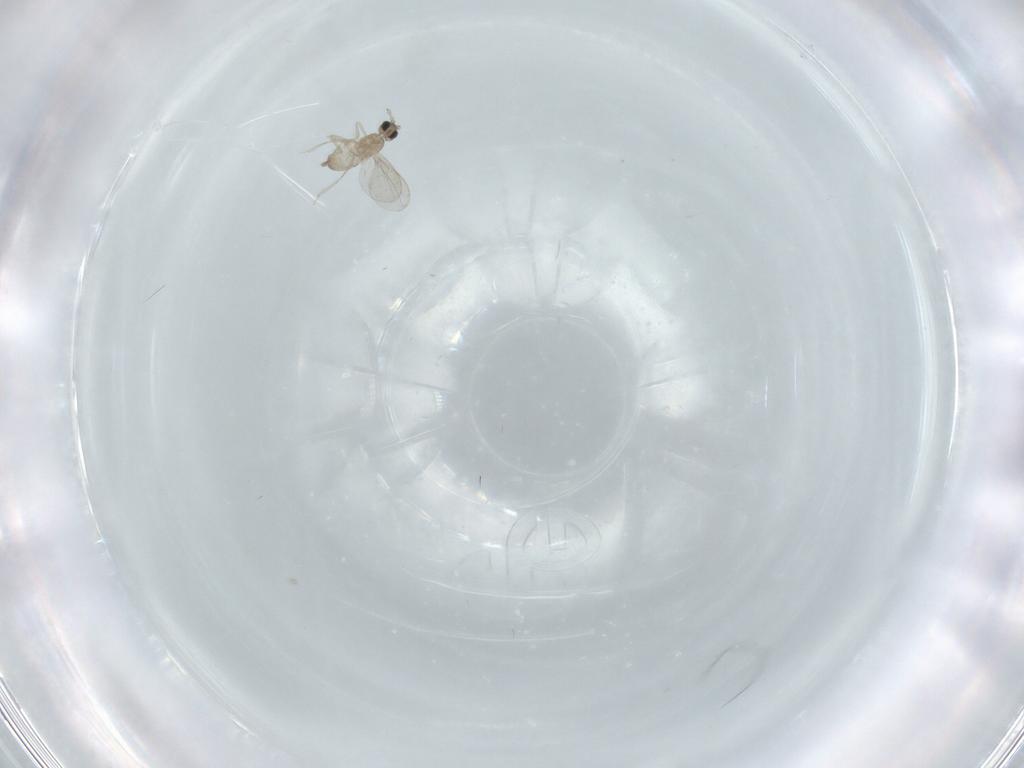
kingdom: Animalia
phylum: Arthropoda
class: Insecta
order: Diptera
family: Cecidomyiidae
